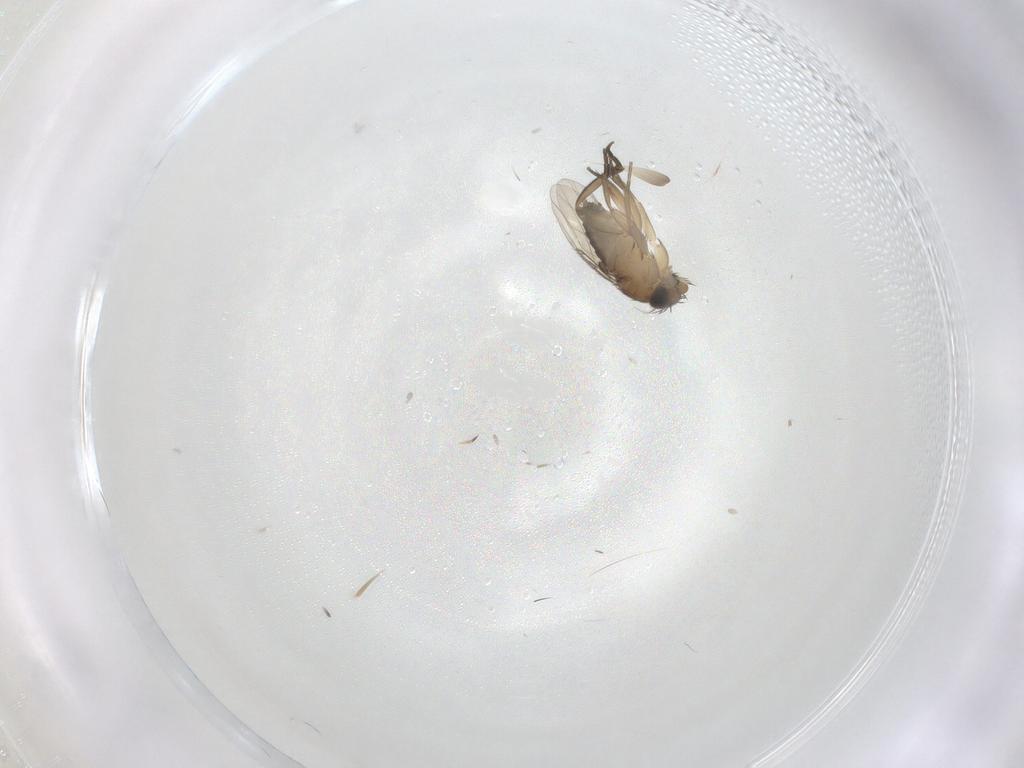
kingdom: Animalia
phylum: Arthropoda
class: Insecta
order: Diptera
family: Phoridae
